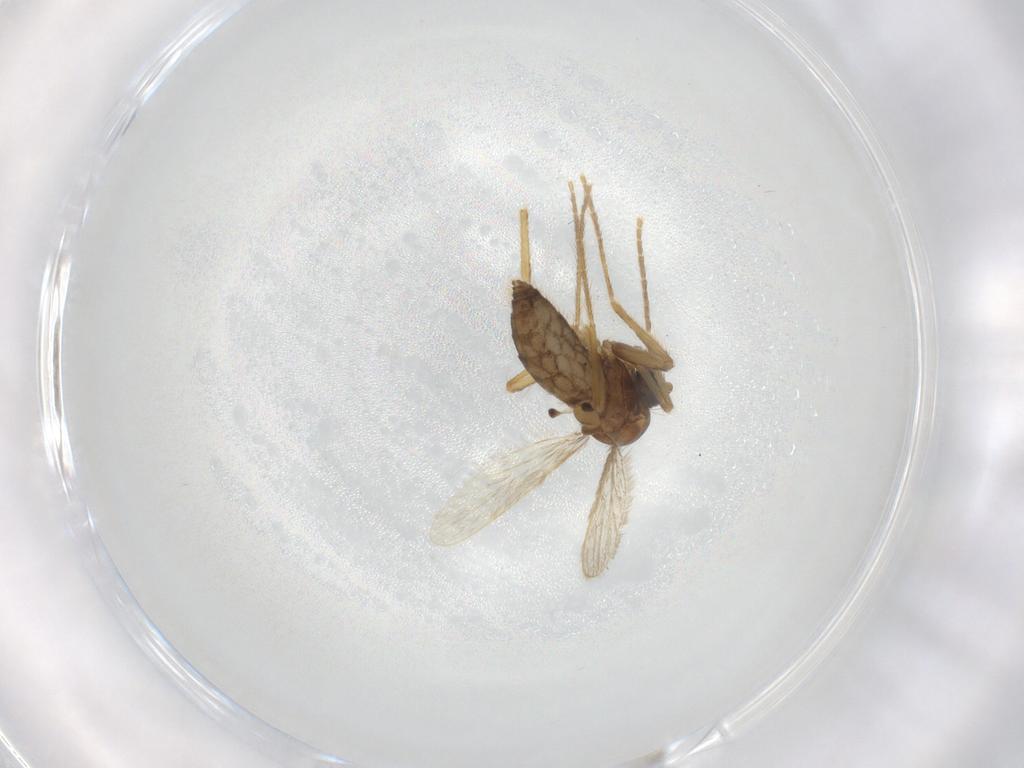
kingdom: Animalia
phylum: Arthropoda
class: Insecta
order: Diptera
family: Corethrellidae
